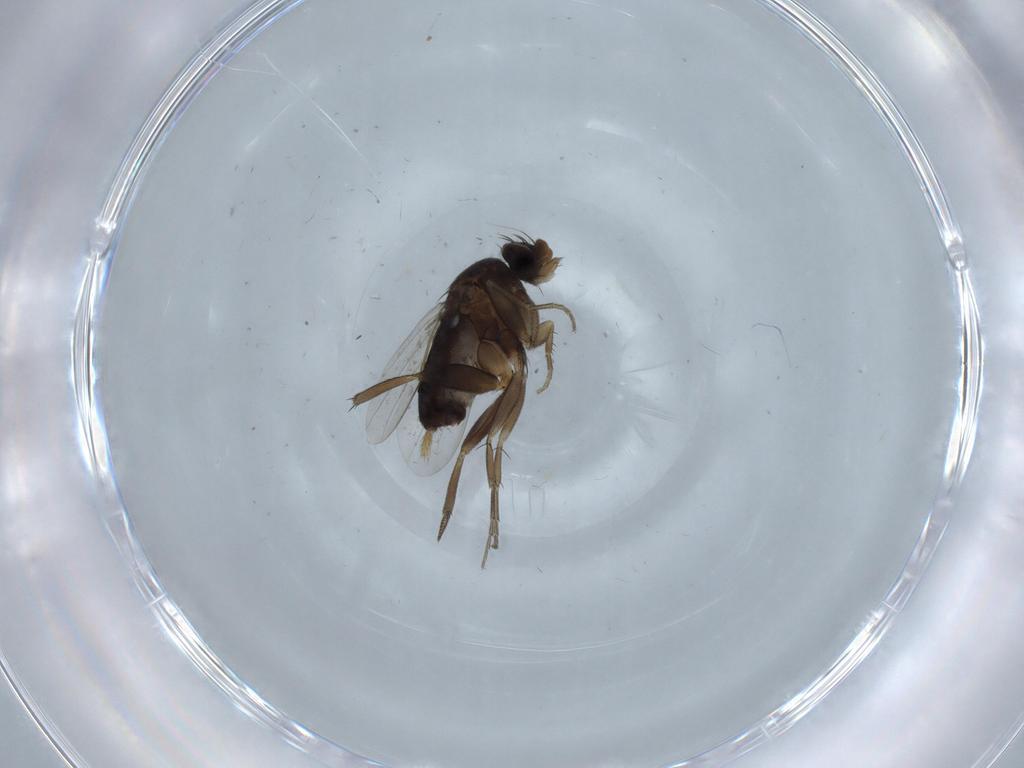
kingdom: Animalia
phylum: Arthropoda
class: Insecta
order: Diptera
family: Phoridae
